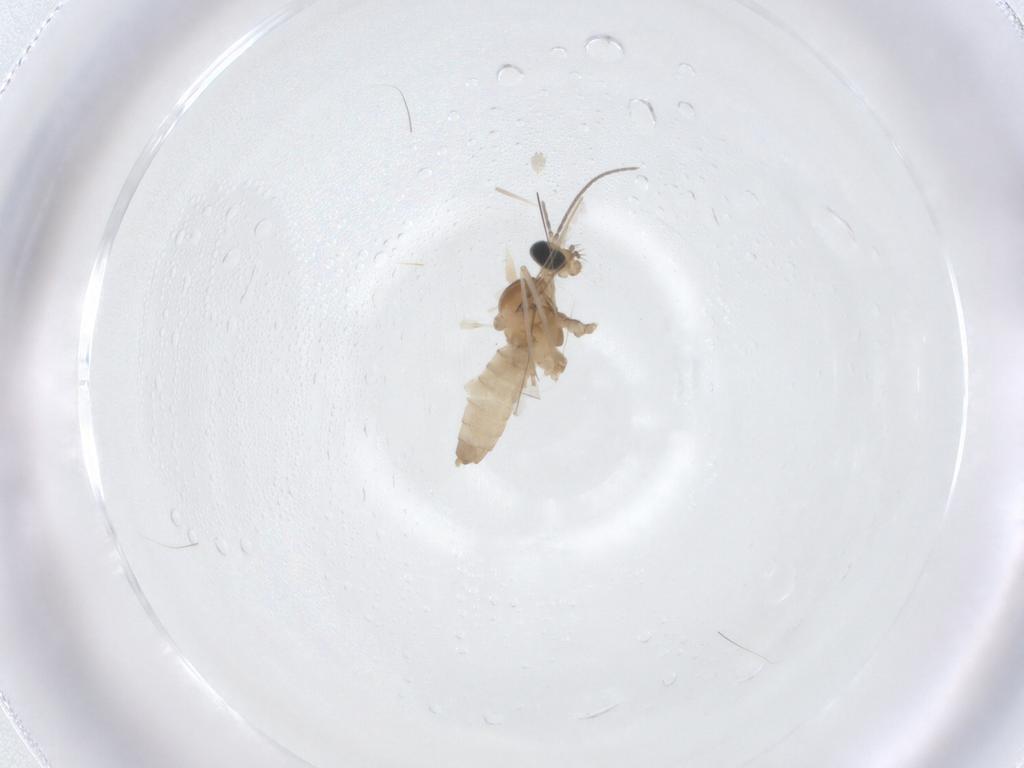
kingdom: Animalia
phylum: Arthropoda
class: Insecta
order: Diptera
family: Cecidomyiidae
